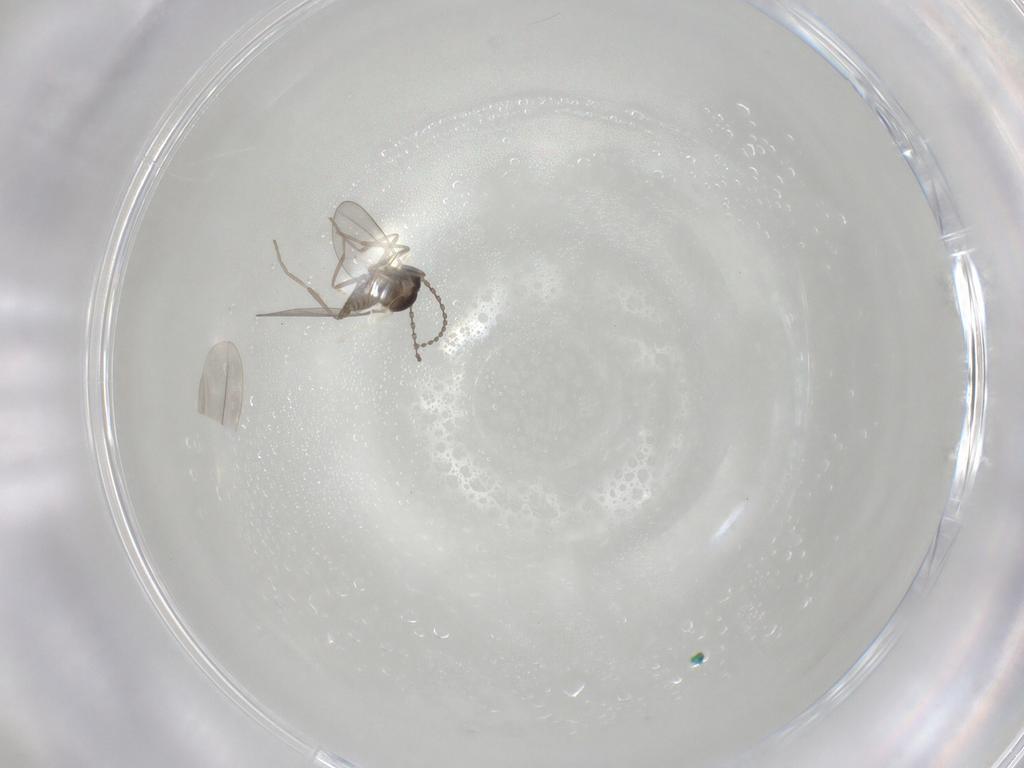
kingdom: Animalia
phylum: Arthropoda
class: Insecta
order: Diptera
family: Cecidomyiidae
